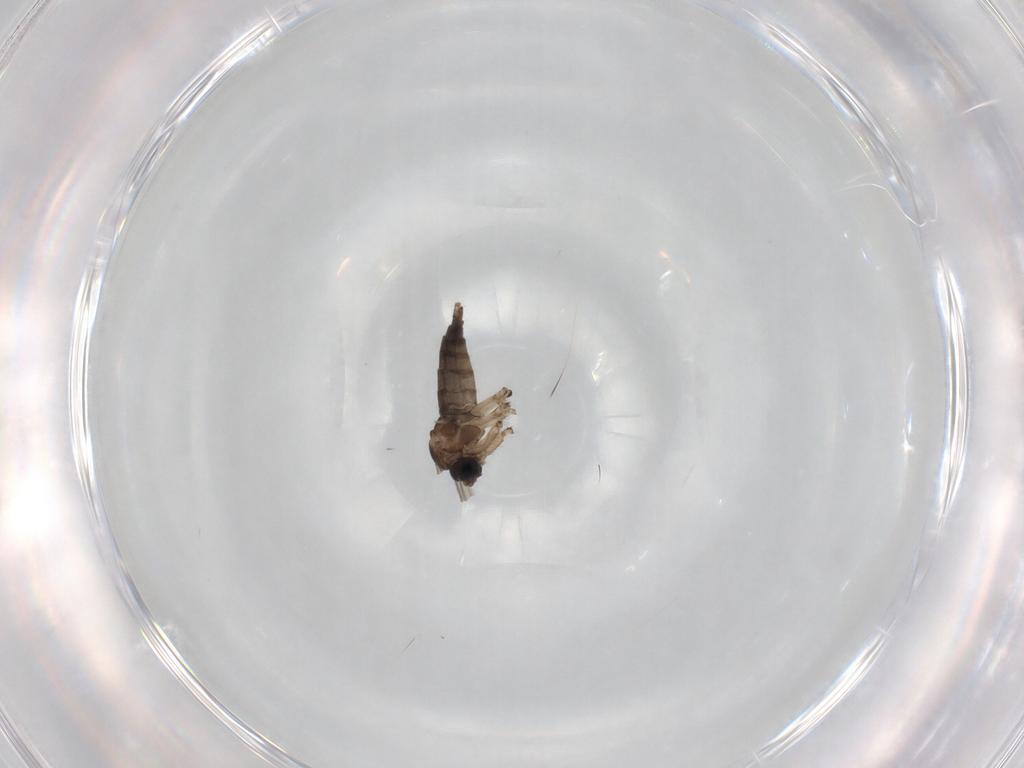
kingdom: Animalia
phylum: Arthropoda
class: Insecta
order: Diptera
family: Sciaridae
